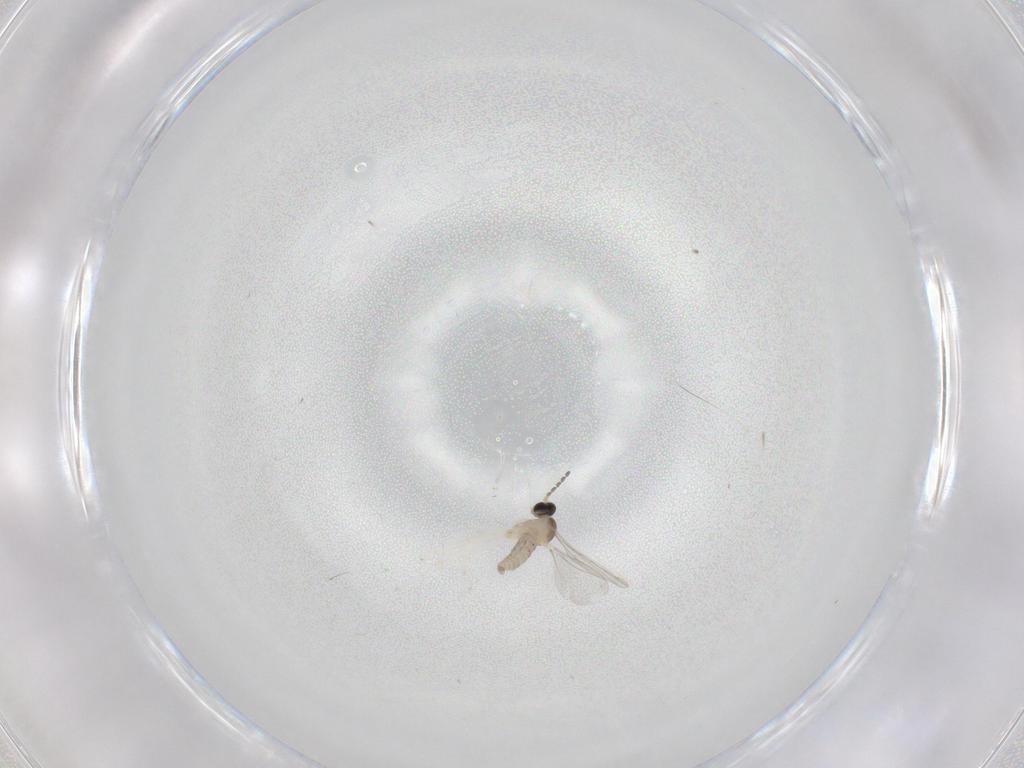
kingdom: Animalia
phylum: Arthropoda
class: Insecta
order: Diptera
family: Cecidomyiidae
